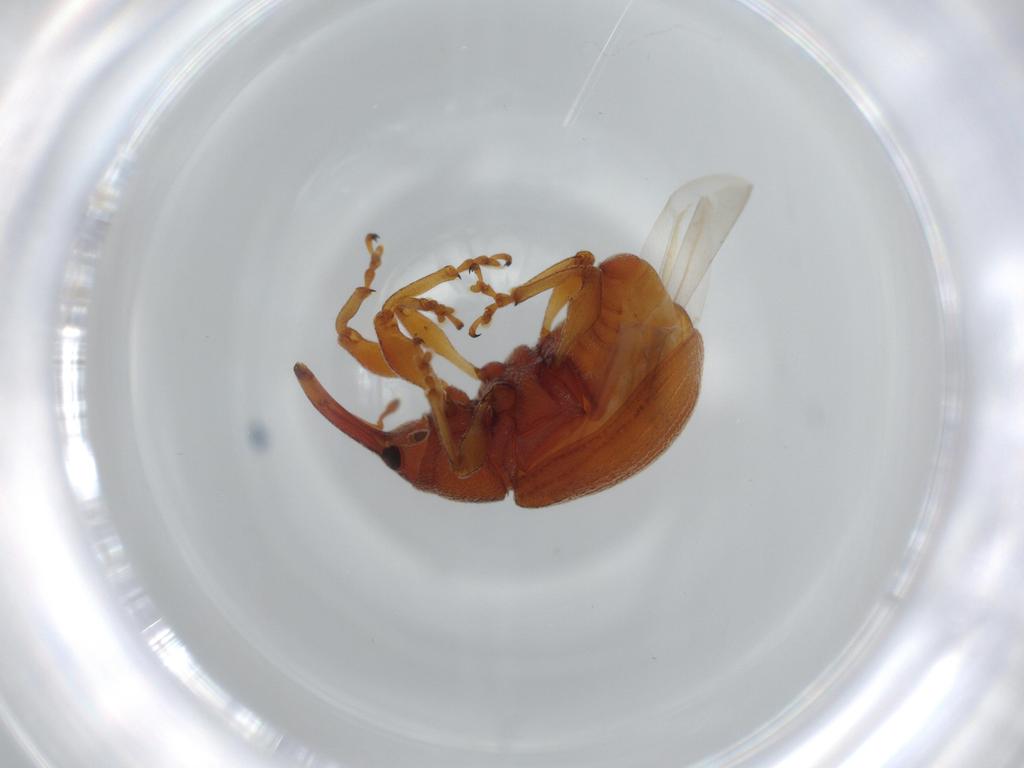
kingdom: Animalia
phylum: Arthropoda
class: Insecta
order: Coleoptera
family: Curculionidae
